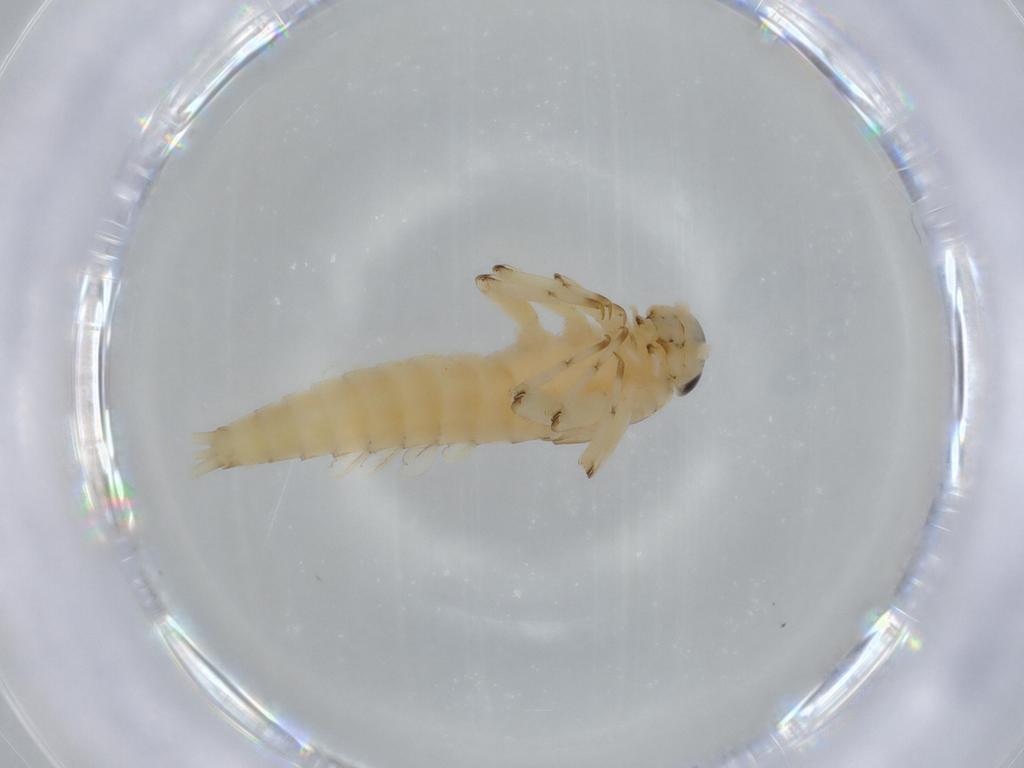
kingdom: Animalia
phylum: Arthropoda
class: Insecta
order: Ephemeroptera
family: Baetidae
